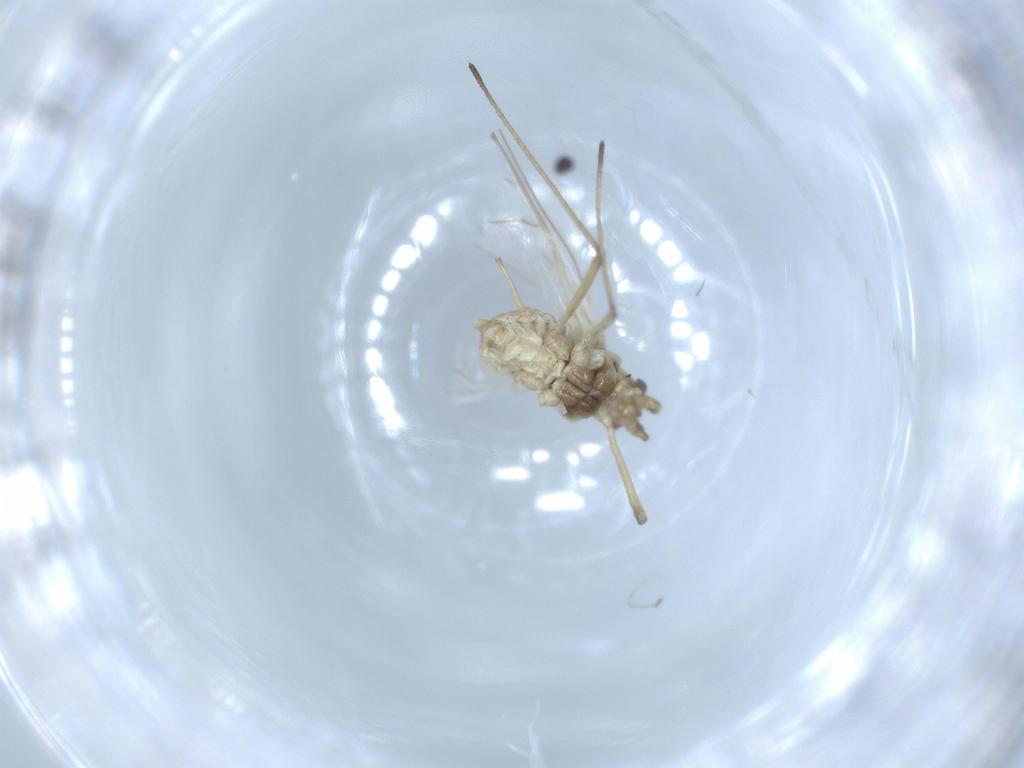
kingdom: Animalia
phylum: Arthropoda
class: Insecta
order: Hemiptera
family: Aphididae
